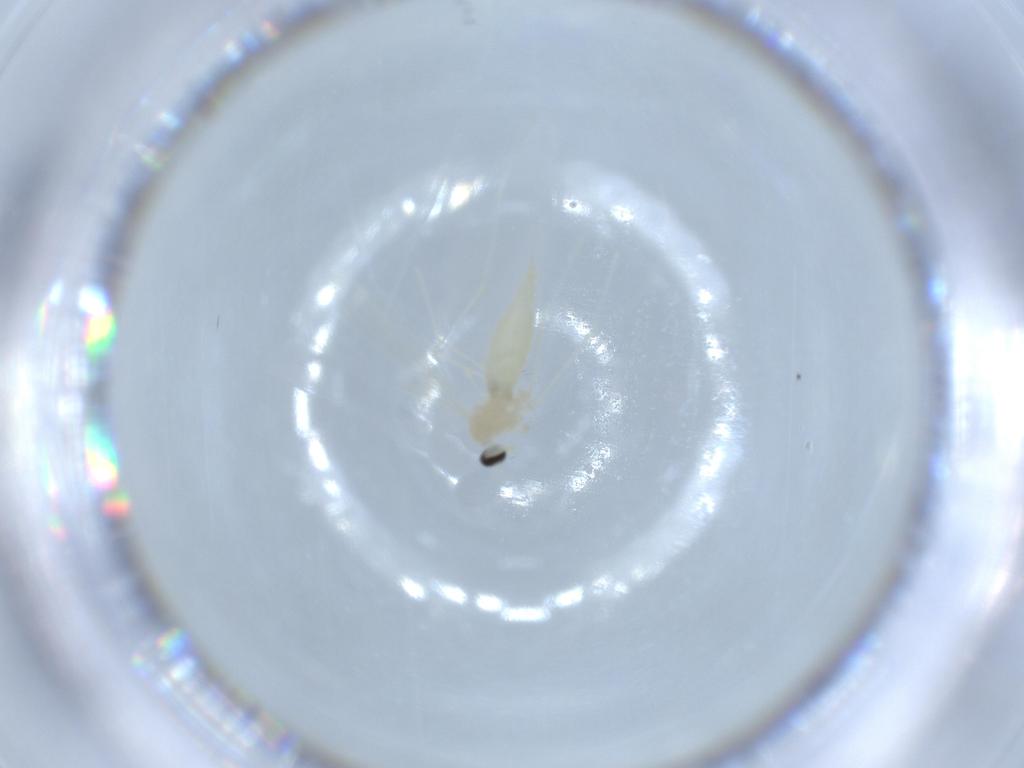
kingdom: Animalia
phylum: Arthropoda
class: Insecta
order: Diptera
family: Cecidomyiidae
